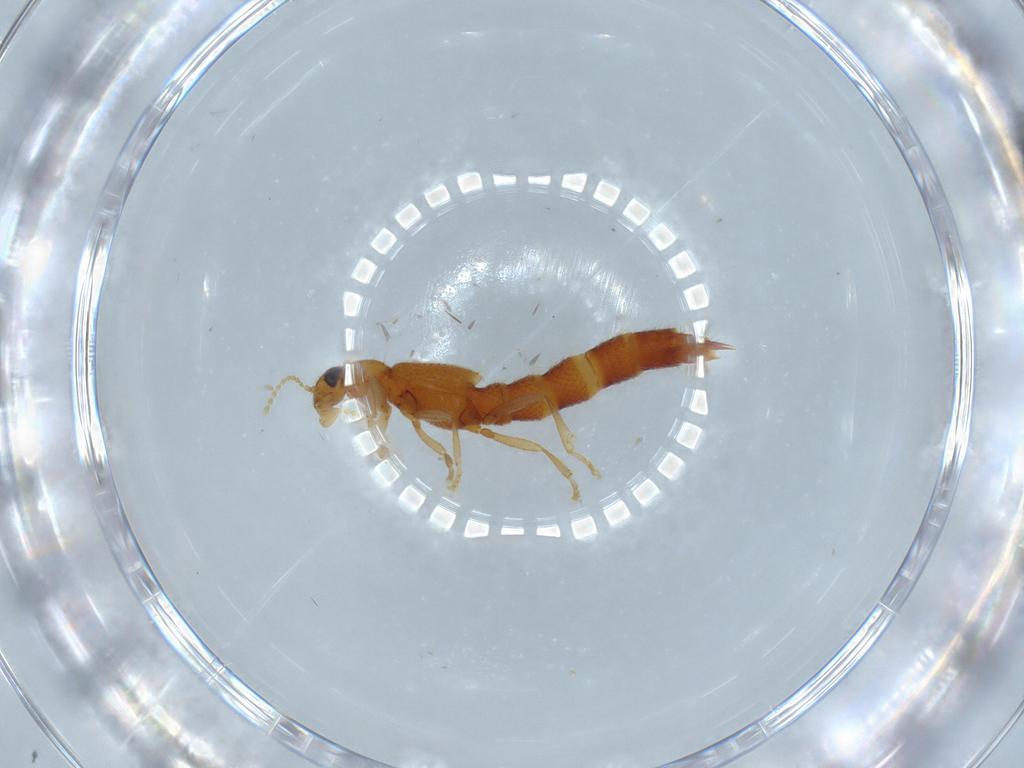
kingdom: Animalia
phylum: Arthropoda
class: Insecta
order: Coleoptera
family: Staphylinidae
